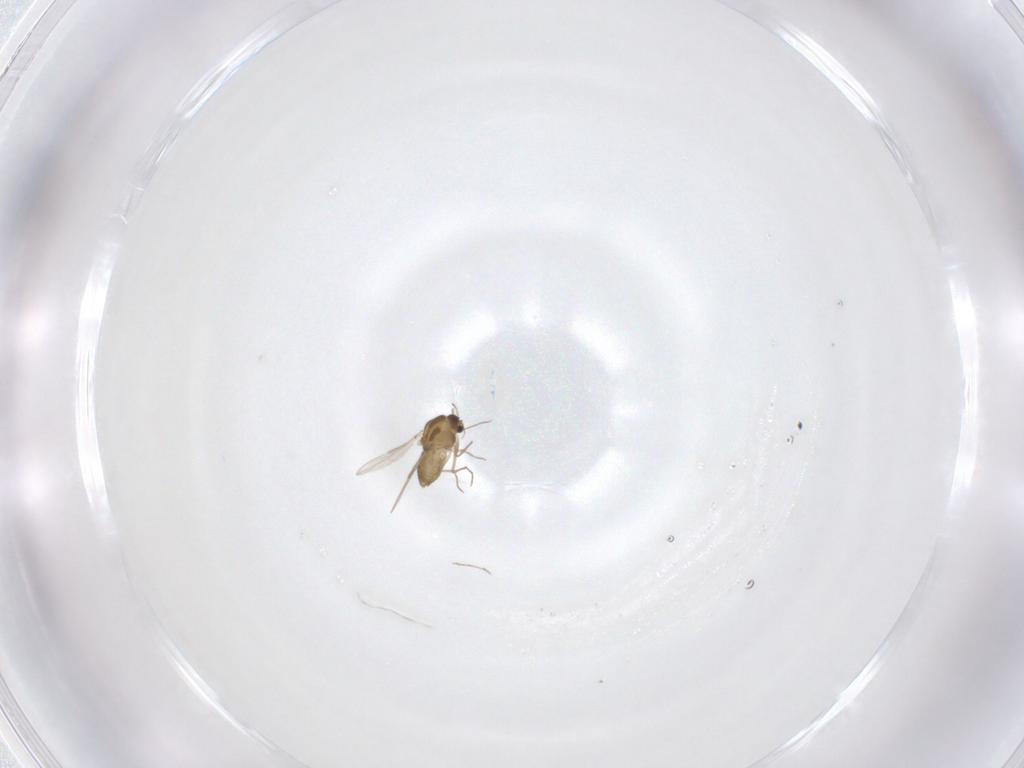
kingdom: Animalia
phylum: Arthropoda
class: Insecta
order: Diptera
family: Chironomidae
